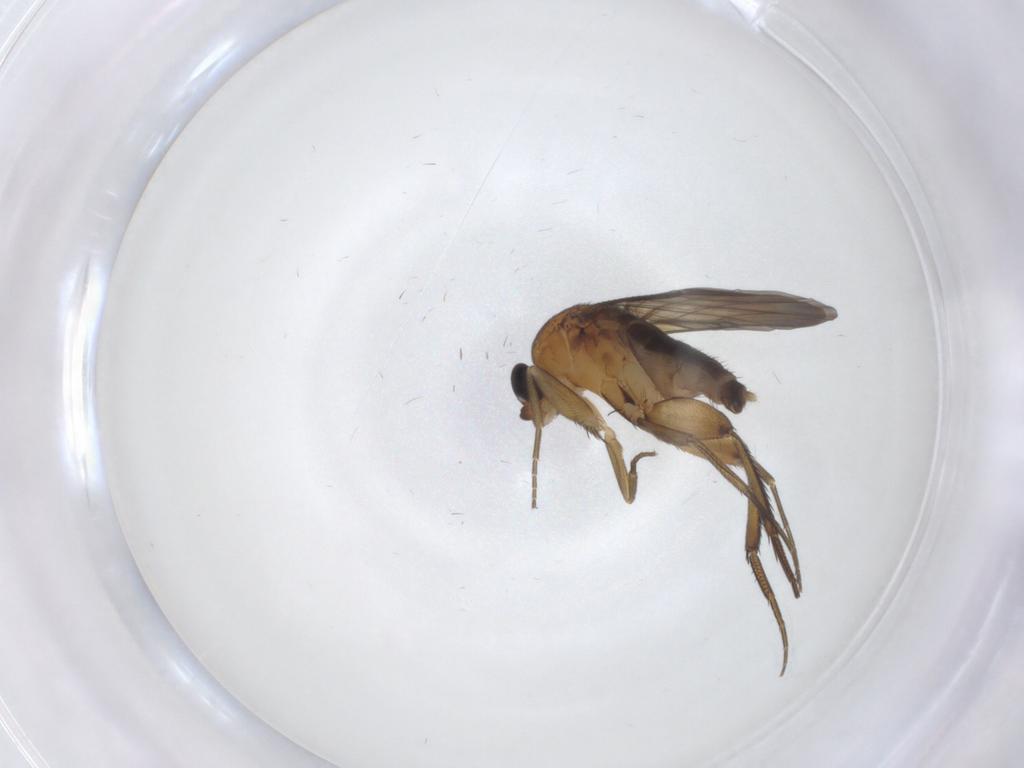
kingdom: Animalia
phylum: Arthropoda
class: Insecta
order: Diptera
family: Phoridae
